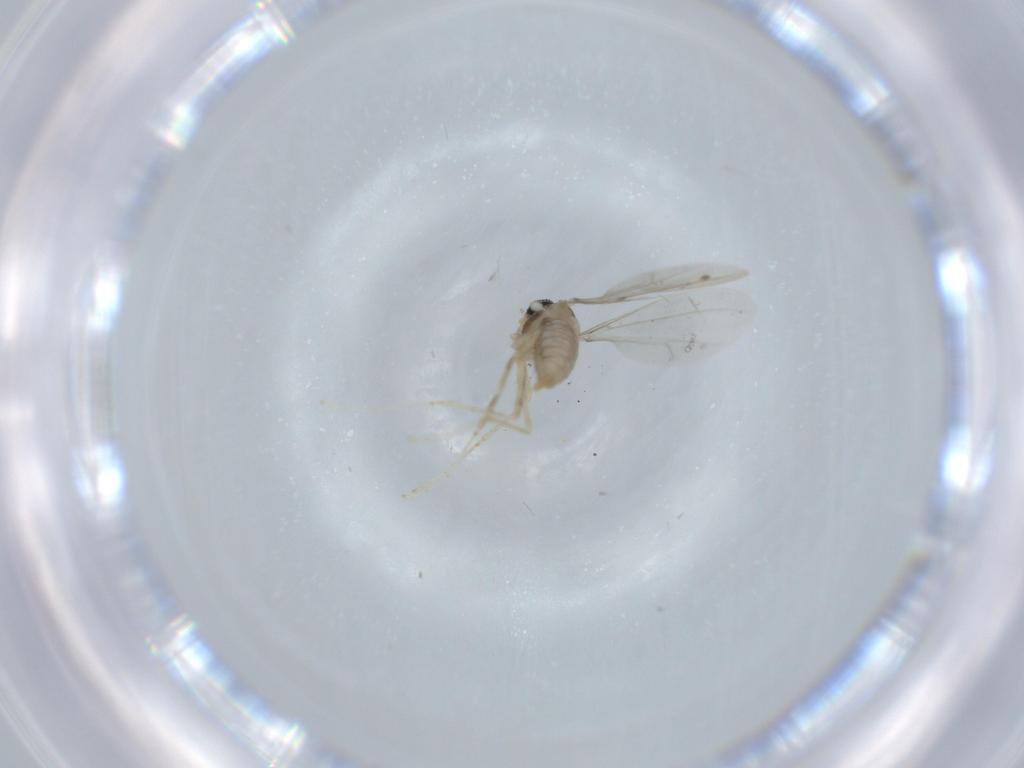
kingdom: Animalia
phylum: Arthropoda
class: Insecta
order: Diptera
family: Cecidomyiidae
